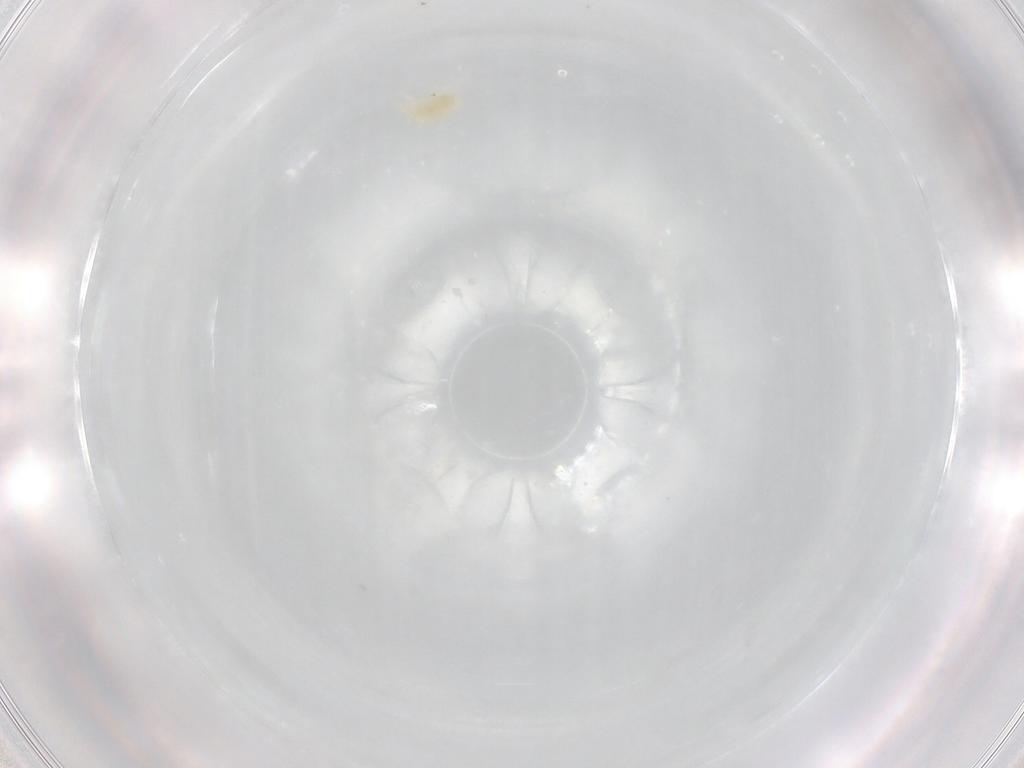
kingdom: Animalia
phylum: Arthropoda
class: Arachnida
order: Trombidiformes
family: Eupodidae
